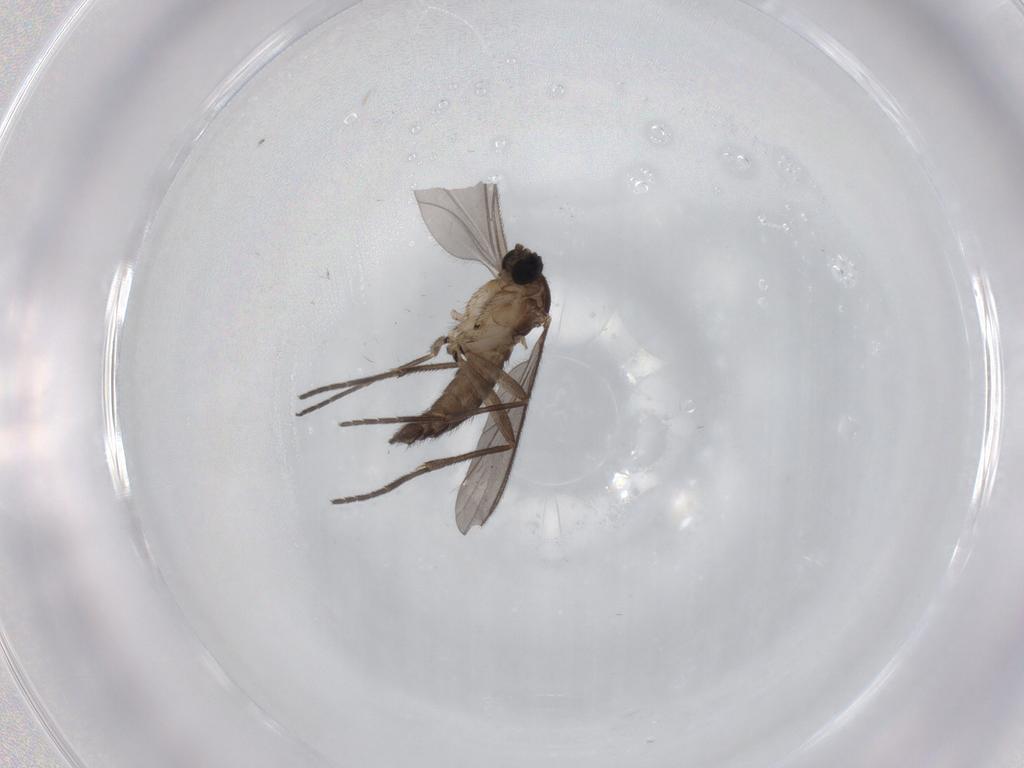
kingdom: Animalia
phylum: Arthropoda
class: Insecta
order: Diptera
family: Sciaridae
